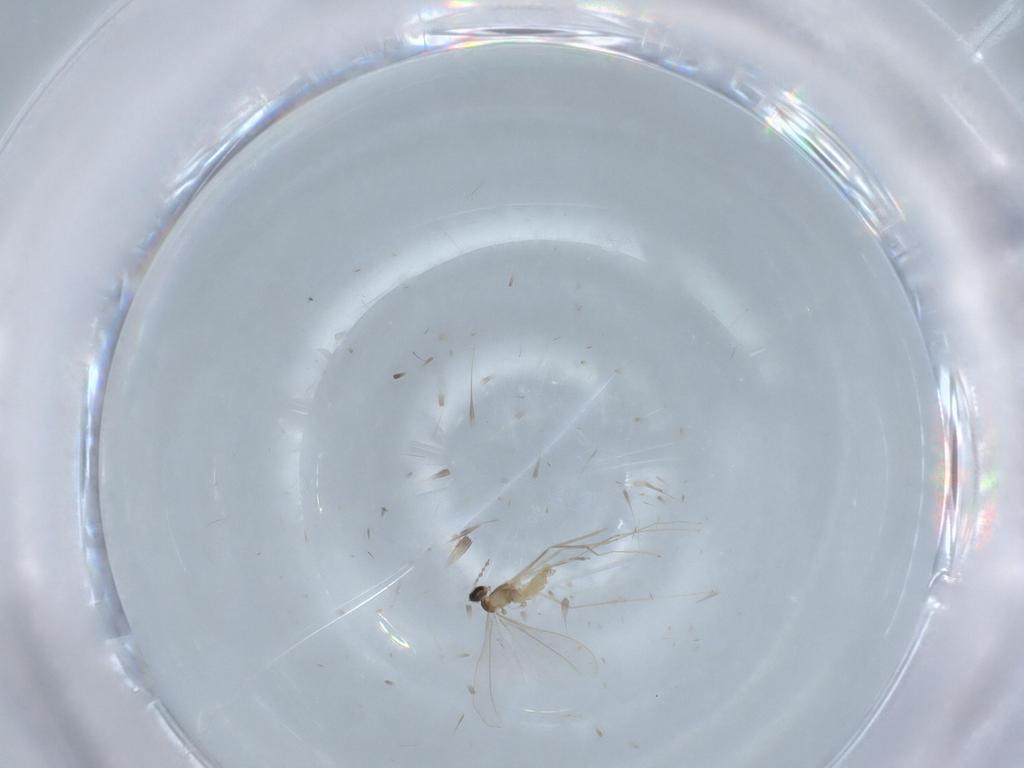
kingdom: Animalia
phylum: Arthropoda
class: Insecta
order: Diptera
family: Cecidomyiidae
